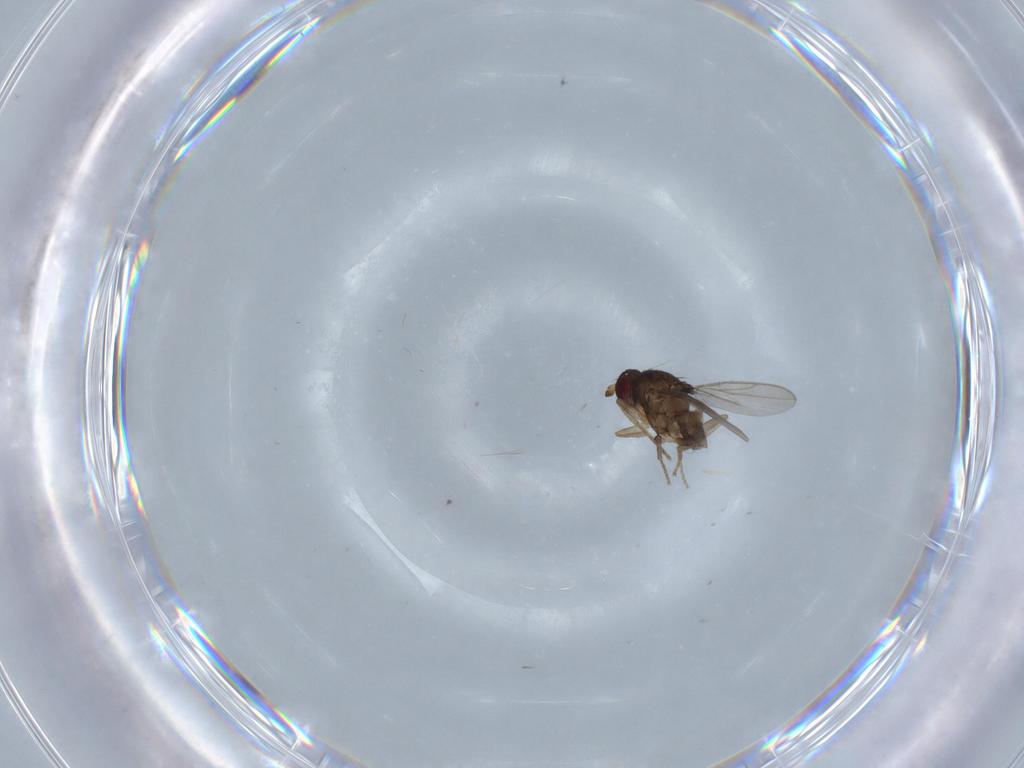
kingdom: Animalia
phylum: Arthropoda
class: Insecta
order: Diptera
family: Sphaeroceridae
